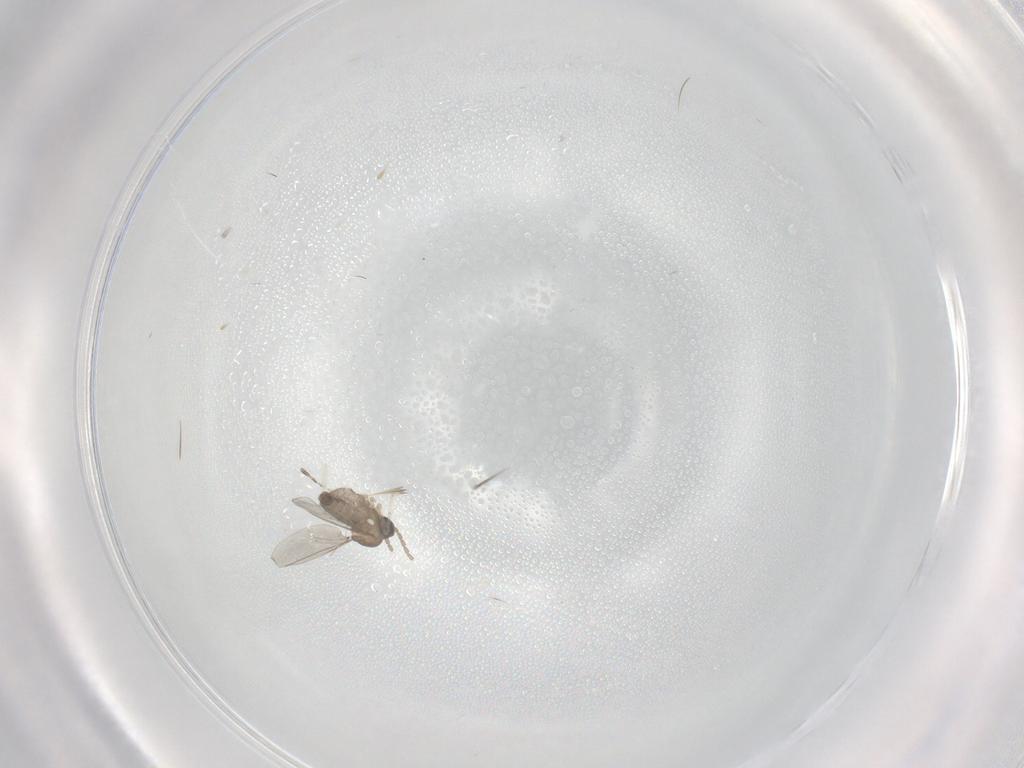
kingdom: Animalia
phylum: Arthropoda
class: Insecta
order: Diptera
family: Cecidomyiidae
